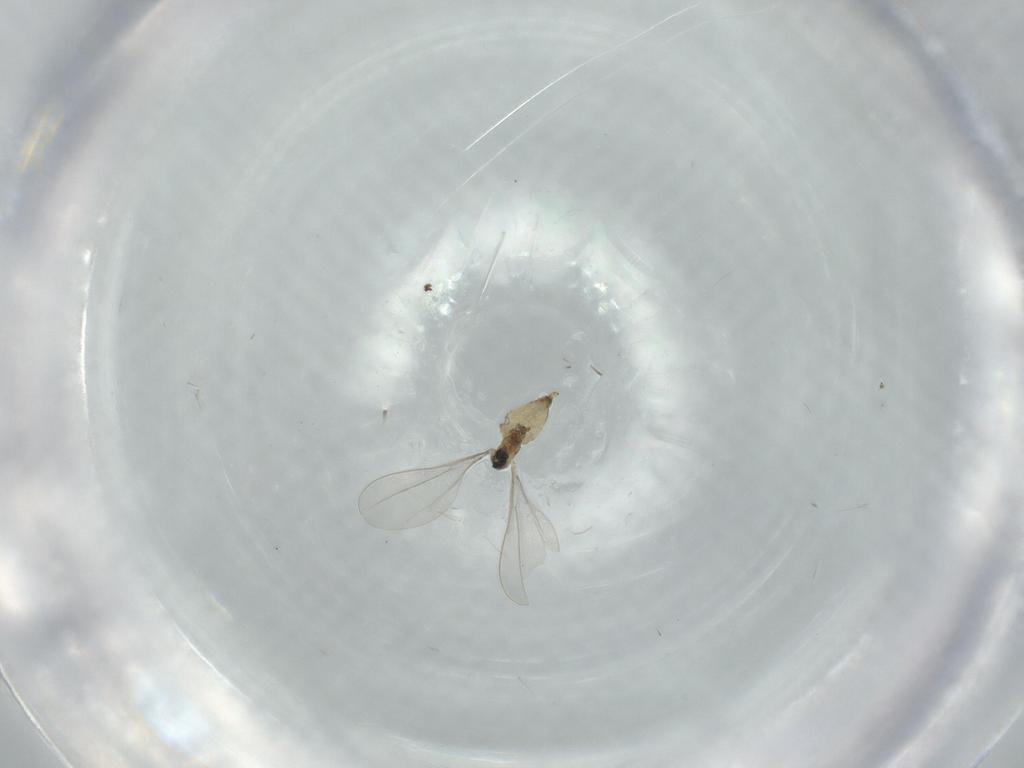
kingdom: Animalia
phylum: Arthropoda
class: Insecta
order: Diptera
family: Cecidomyiidae
